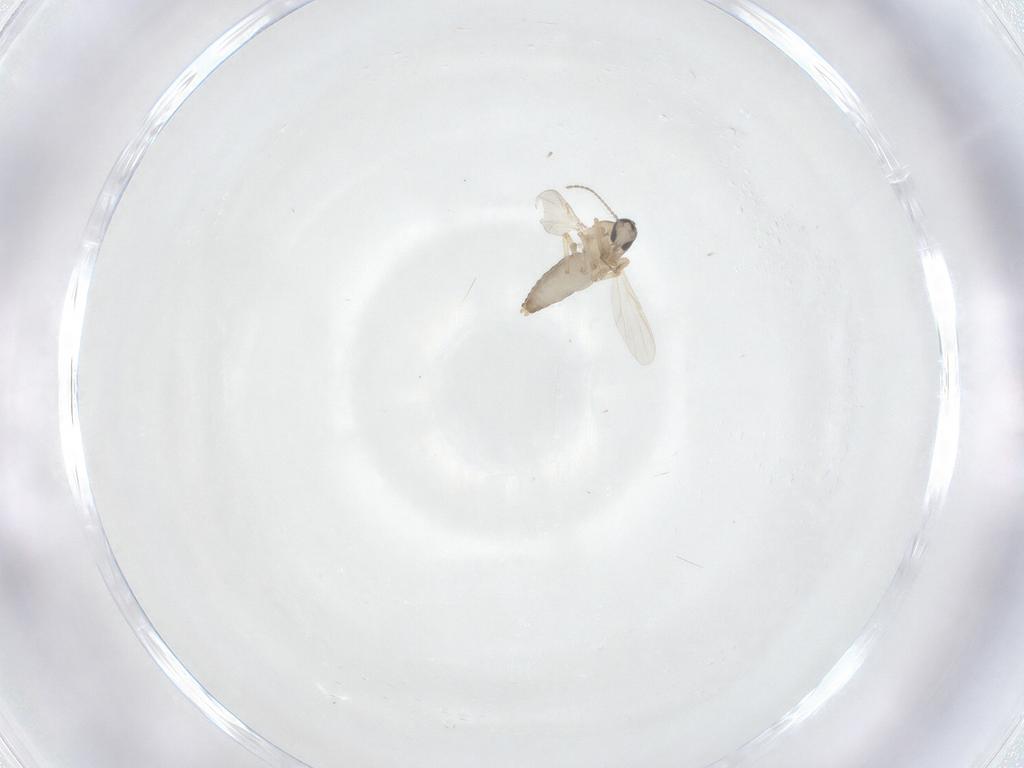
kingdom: Animalia
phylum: Arthropoda
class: Insecta
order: Diptera
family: Ceratopogonidae
